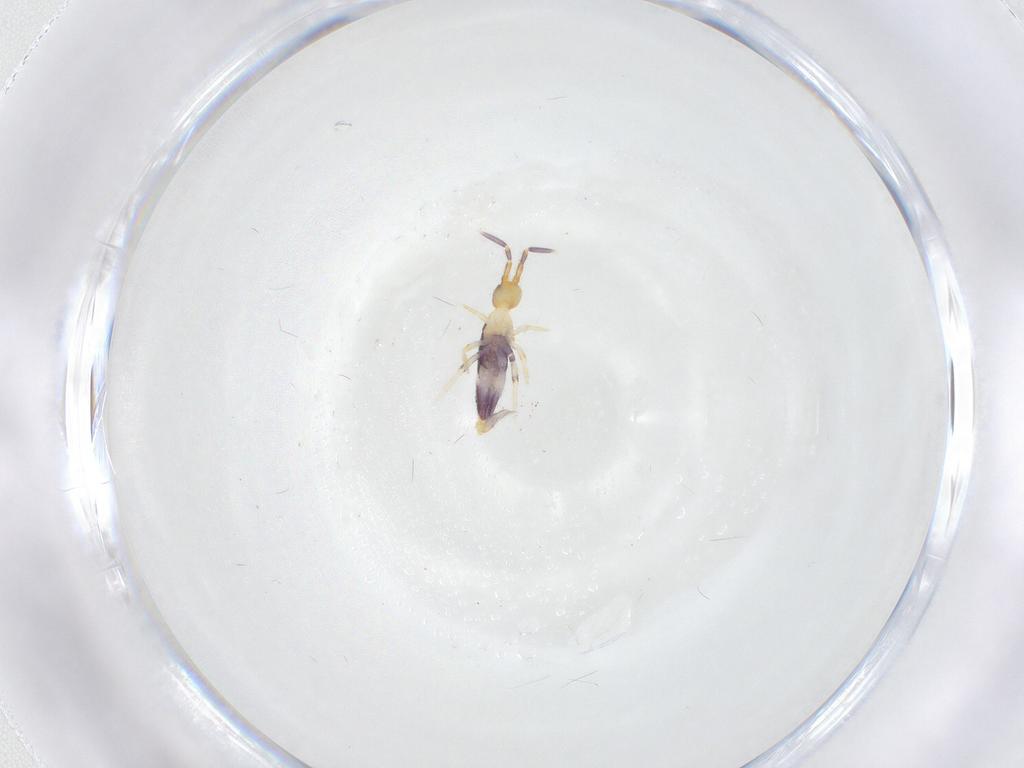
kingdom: Animalia
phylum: Arthropoda
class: Collembola
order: Entomobryomorpha
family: Entomobryidae
